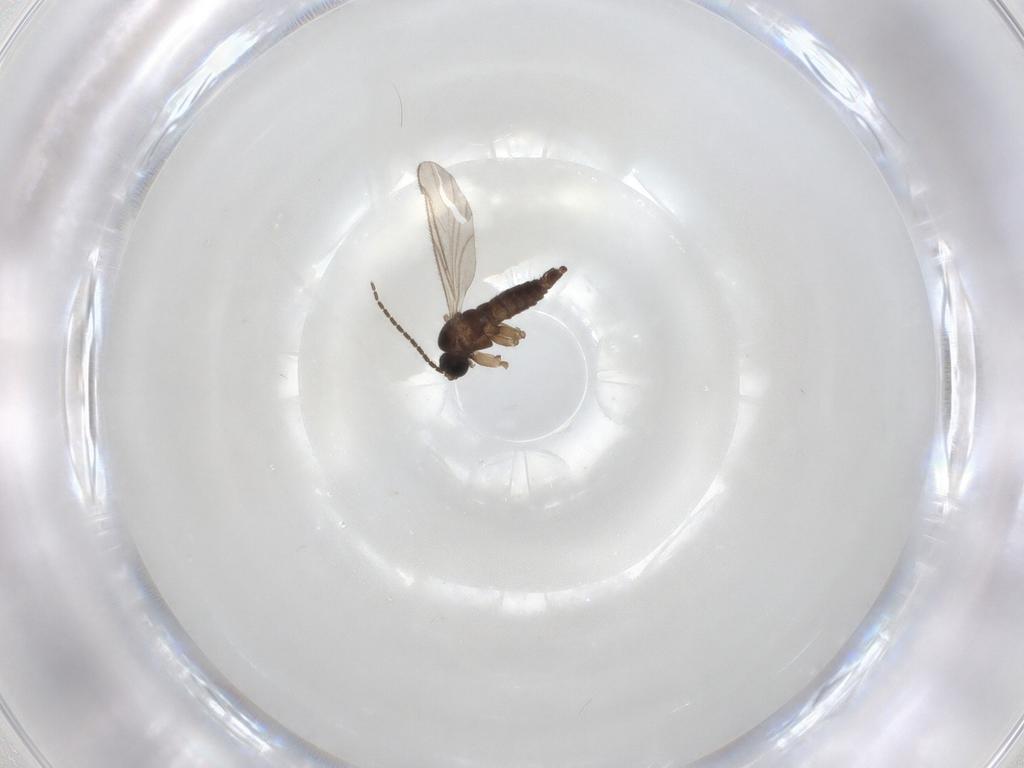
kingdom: Animalia
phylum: Arthropoda
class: Insecta
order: Diptera
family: Sciaridae
